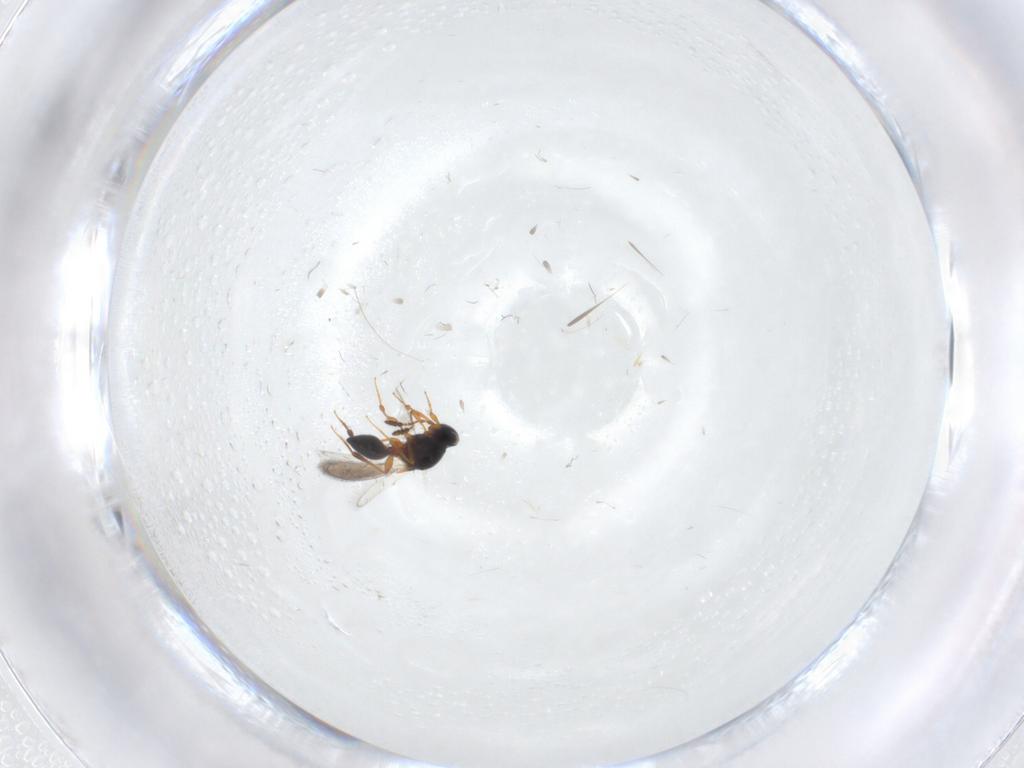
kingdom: Animalia
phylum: Arthropoda
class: Insecta
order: Hymenoptera
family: Platygastridae
